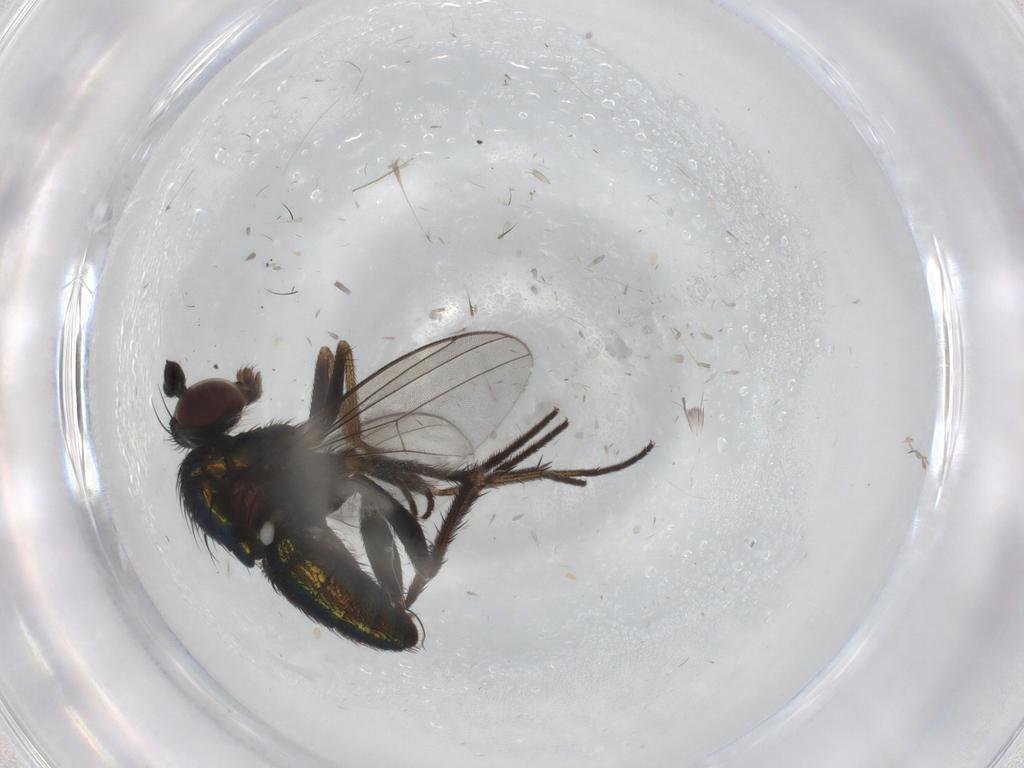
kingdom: Animalia
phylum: Arthropoda
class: Insecta
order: Diptera
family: Dolichopodidae
